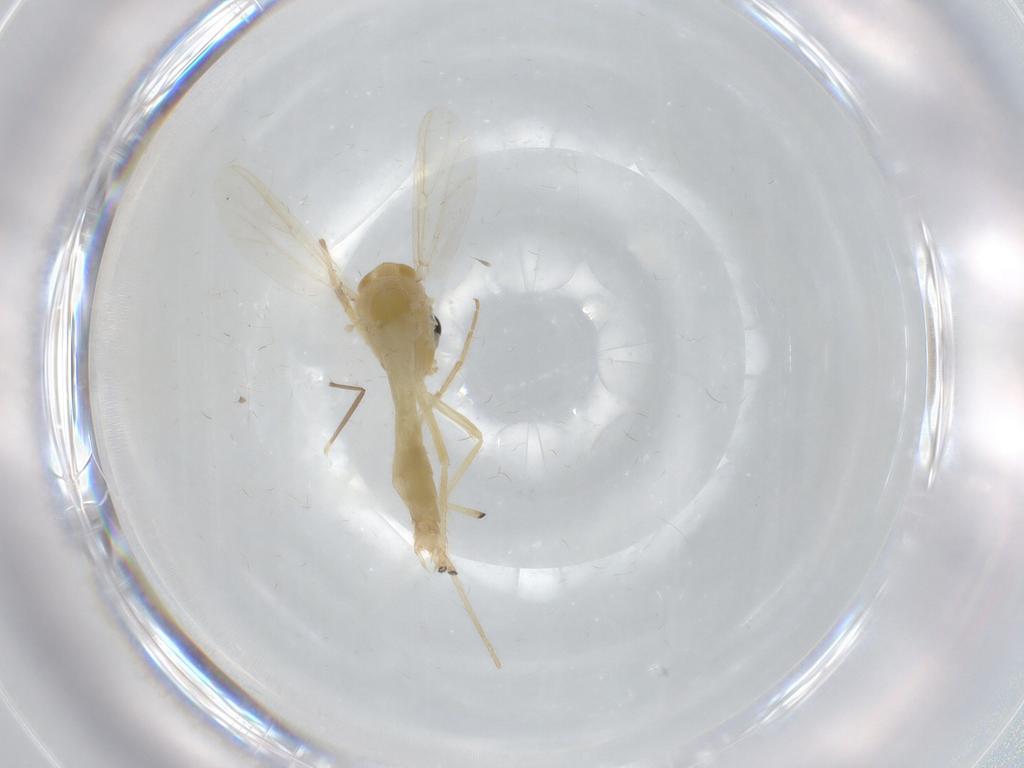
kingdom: Animalia
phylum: Arthropoda
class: Insecta
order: Diptera
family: Chironomidae
